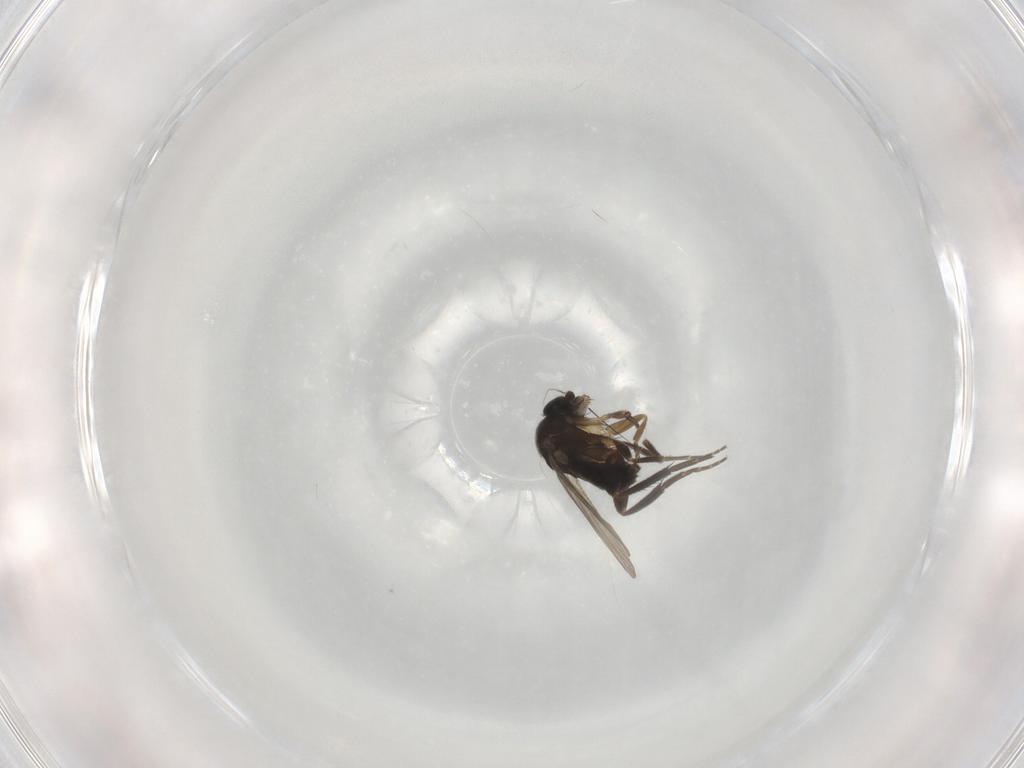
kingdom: Animalia
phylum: Arthropoda
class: Insecta
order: Diptera
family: Phoridae
